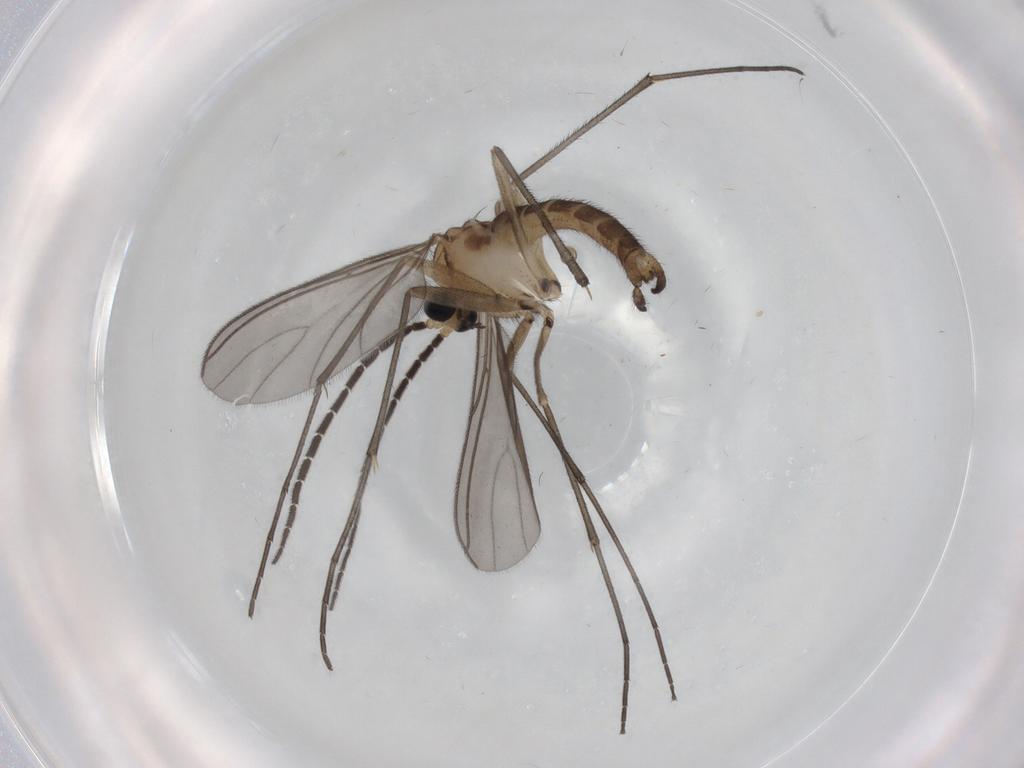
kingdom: Animalia
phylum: Arthropoda
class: Insecta
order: Diptera
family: Sciaridae
